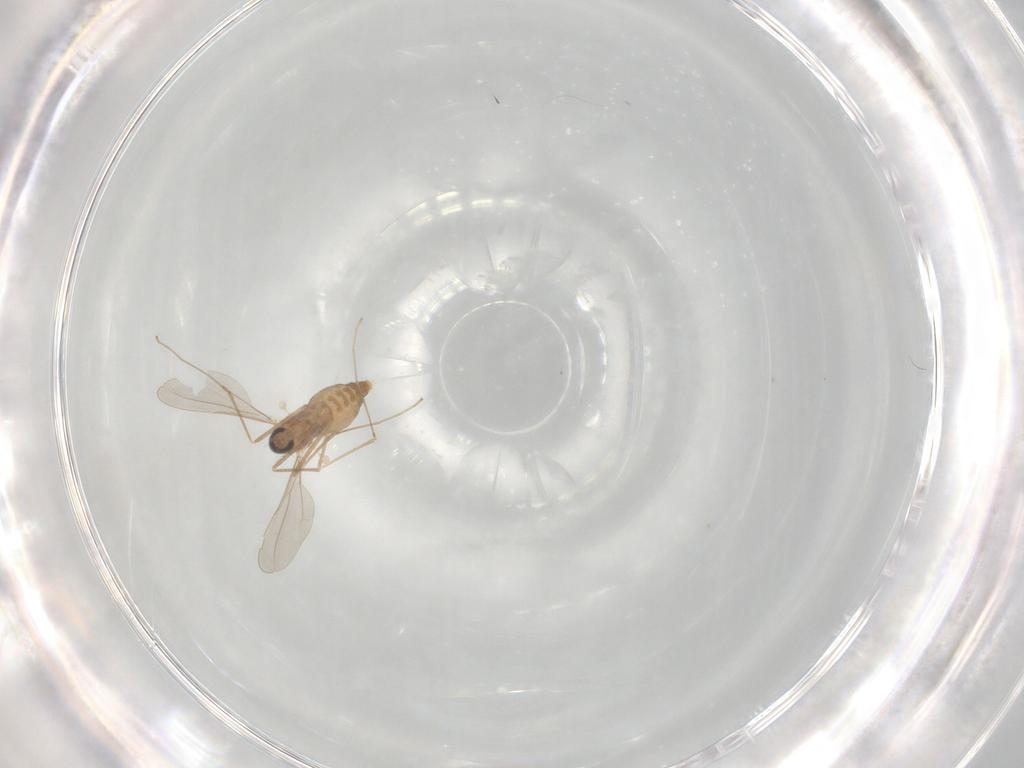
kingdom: Animalia
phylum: Arthropoda
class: Insecta
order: Diptera
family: Cecidomyiidae
